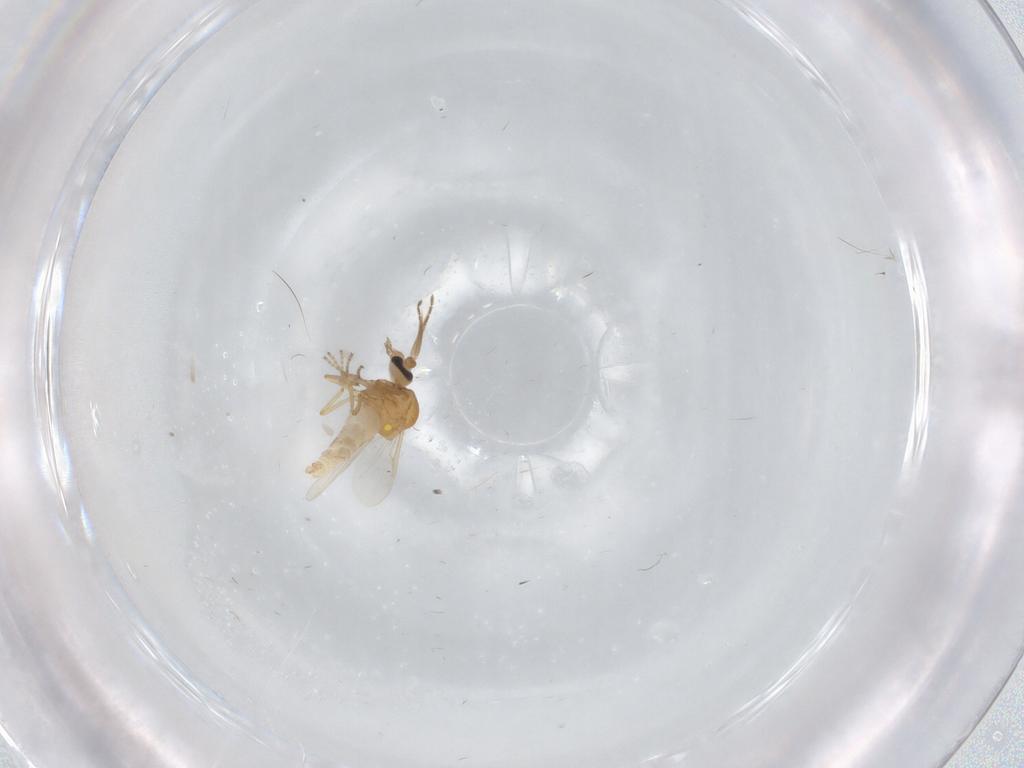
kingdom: Animalia
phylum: Arthropoda
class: Insecta
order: Diptera
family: Ceratopogonidae
